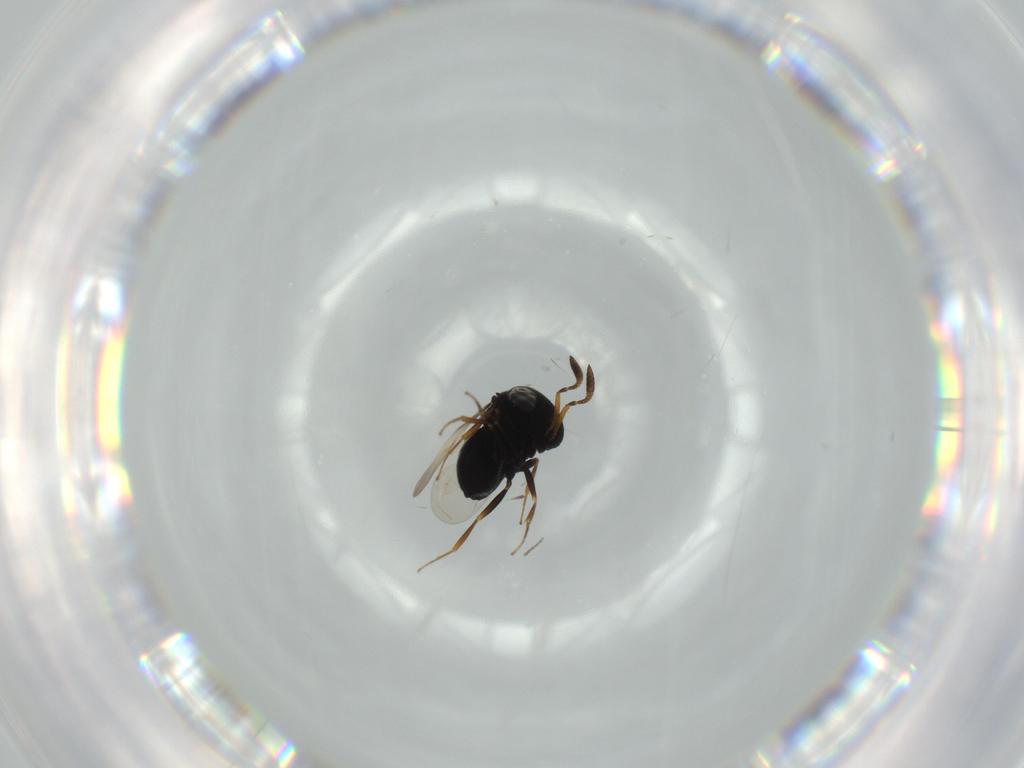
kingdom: Animalia
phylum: Arthropoda
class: Insecta
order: Hymenoptera
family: Scelionidae
